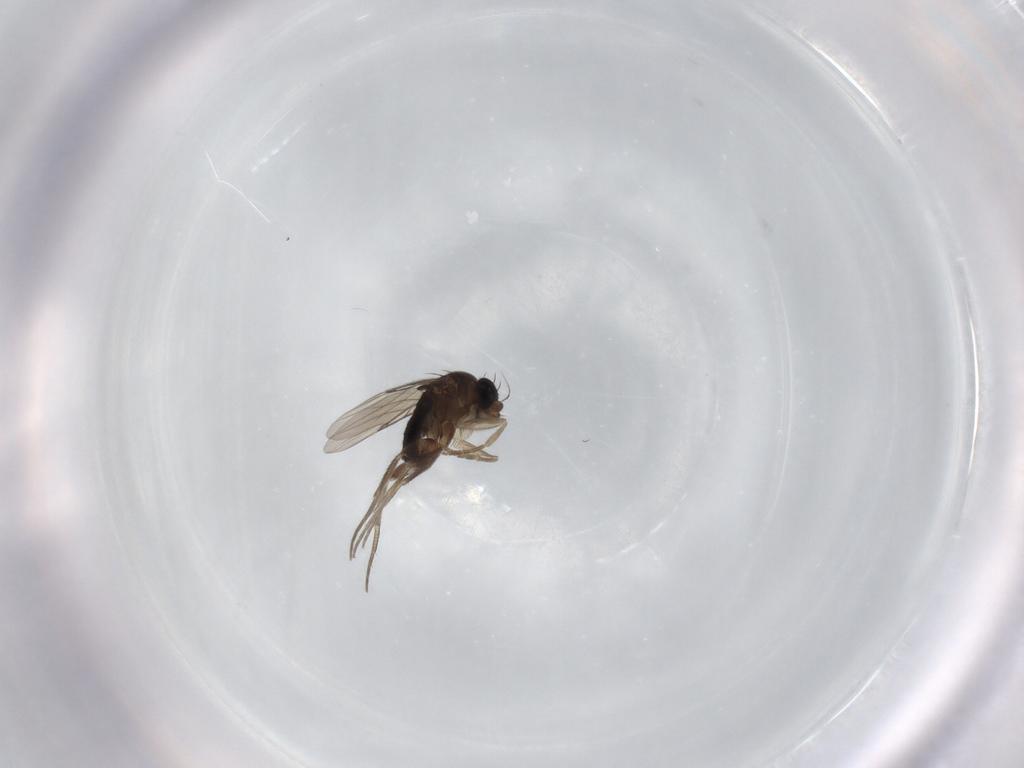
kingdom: Animalia
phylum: Arthropoda
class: Insecta
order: Diptera
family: Phoridae
